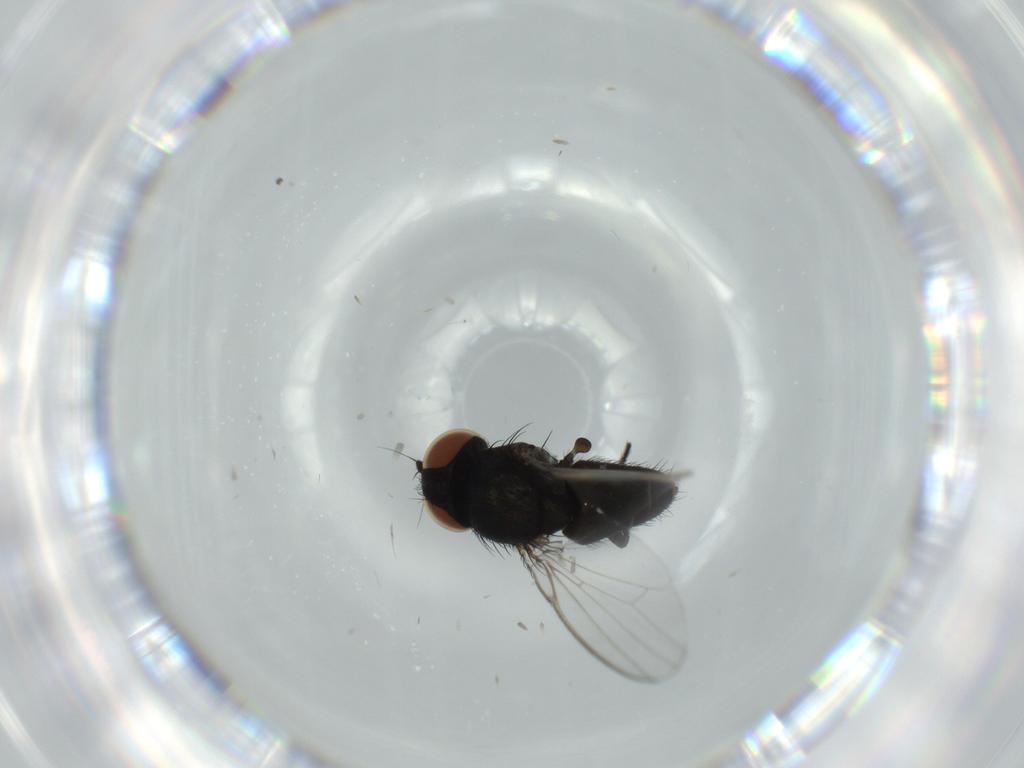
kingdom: Animalia
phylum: Arthropoda
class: Insecta
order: Diptera
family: Milichiidae
